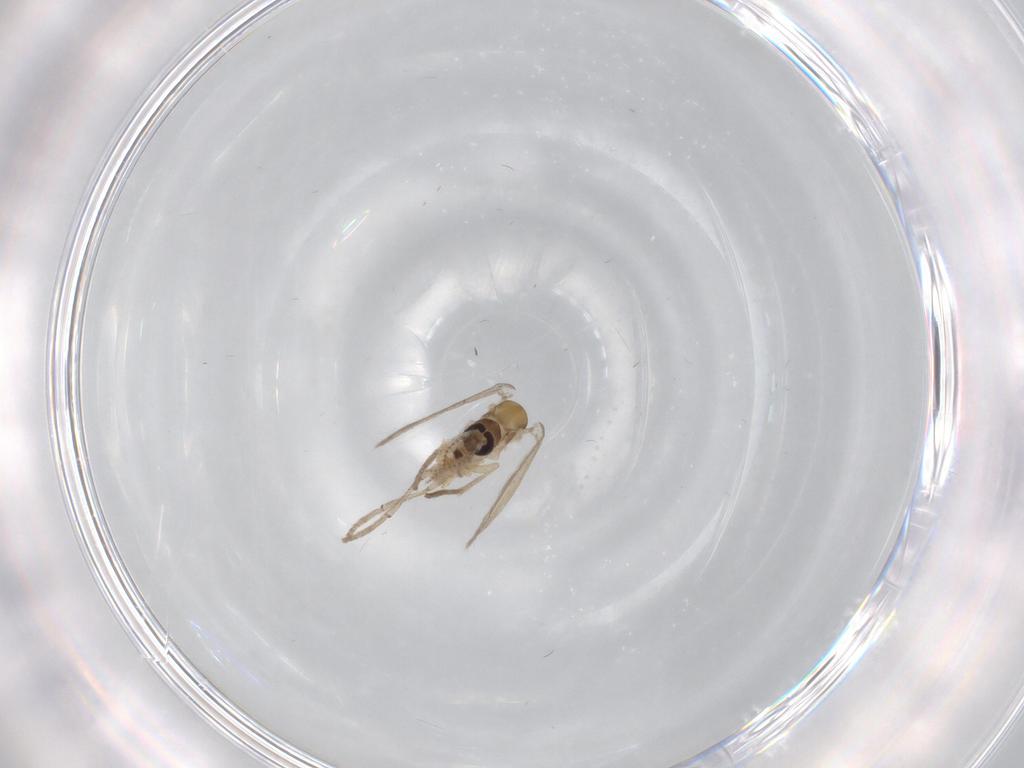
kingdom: Animalia
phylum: Arthropoda
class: Insecta
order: Diptera
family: Psychodidae
